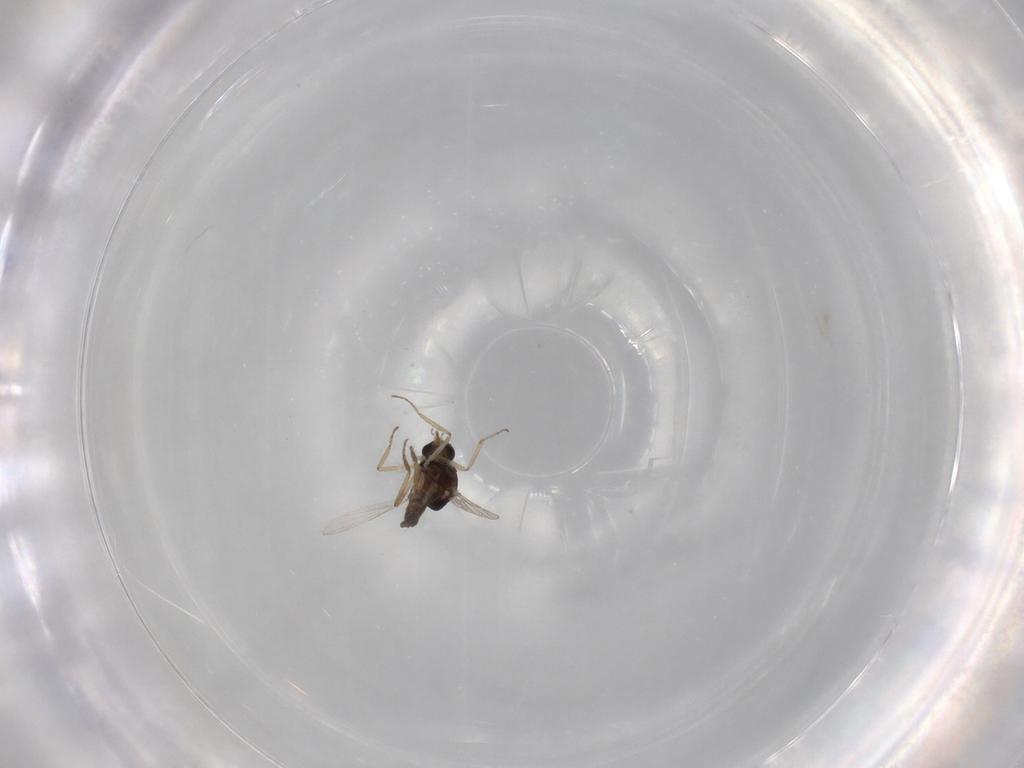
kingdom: Animalia
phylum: Arthropoda
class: Insecta
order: Diptera
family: Ceratopogonidae
